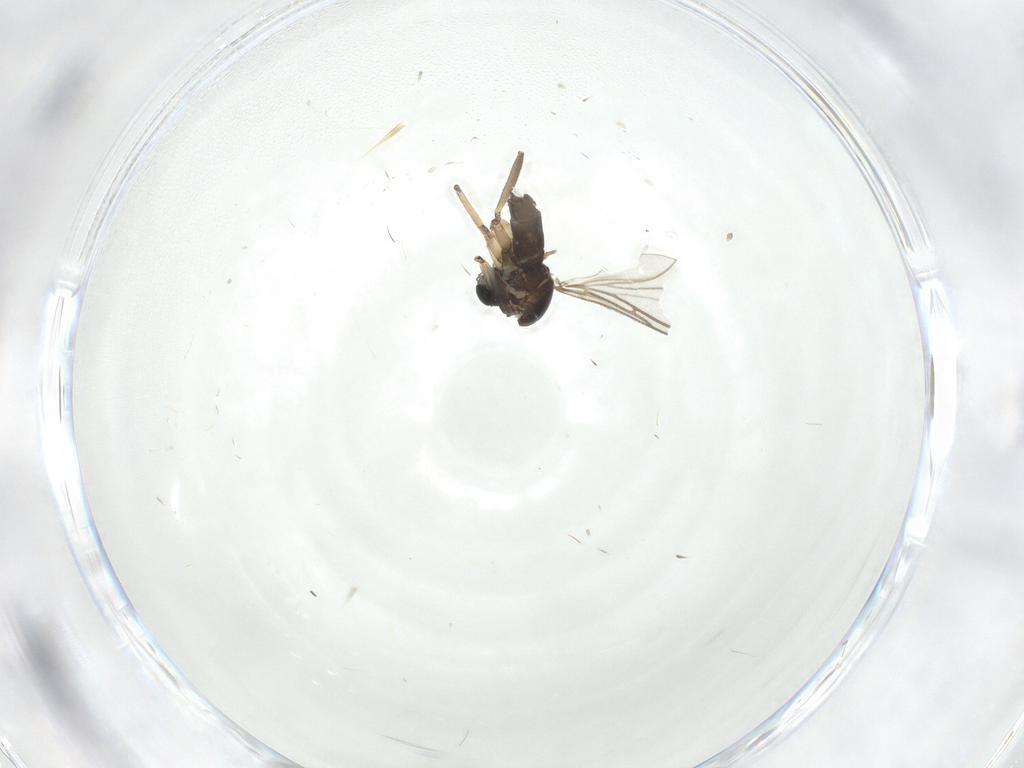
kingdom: Animalia
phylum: Arthropoda
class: Insecta
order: Diptera
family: Sciaridae
